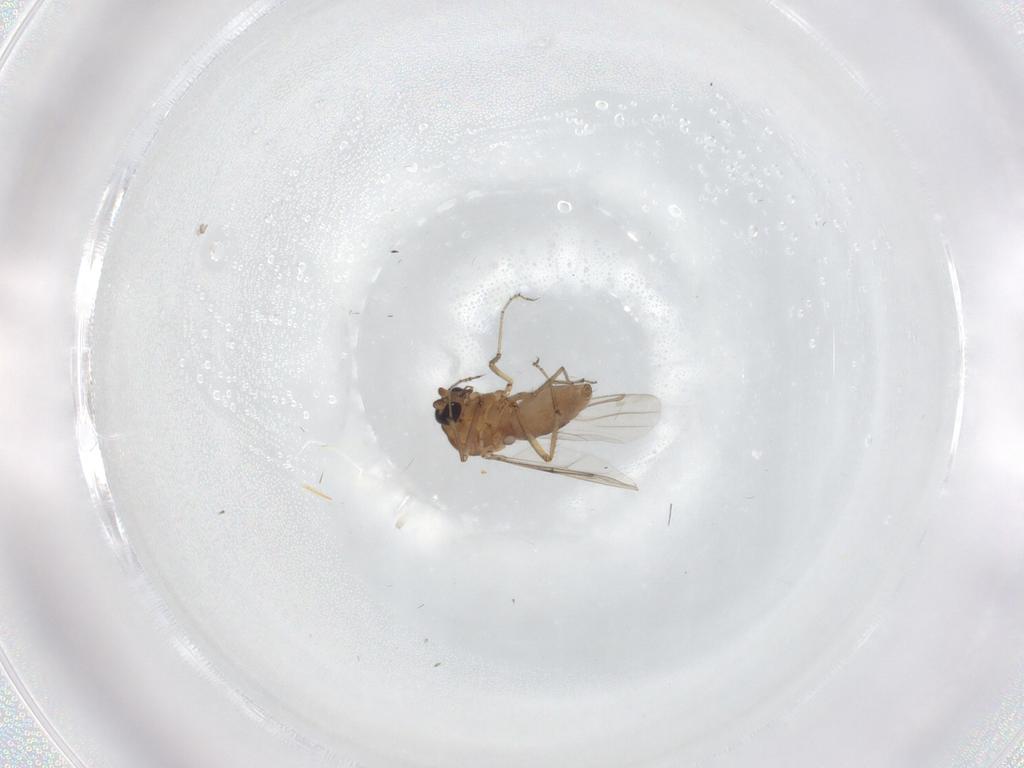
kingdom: Animalia
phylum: Arthropoda
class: Insecta
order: Diptera
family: Ceratopogonidae
